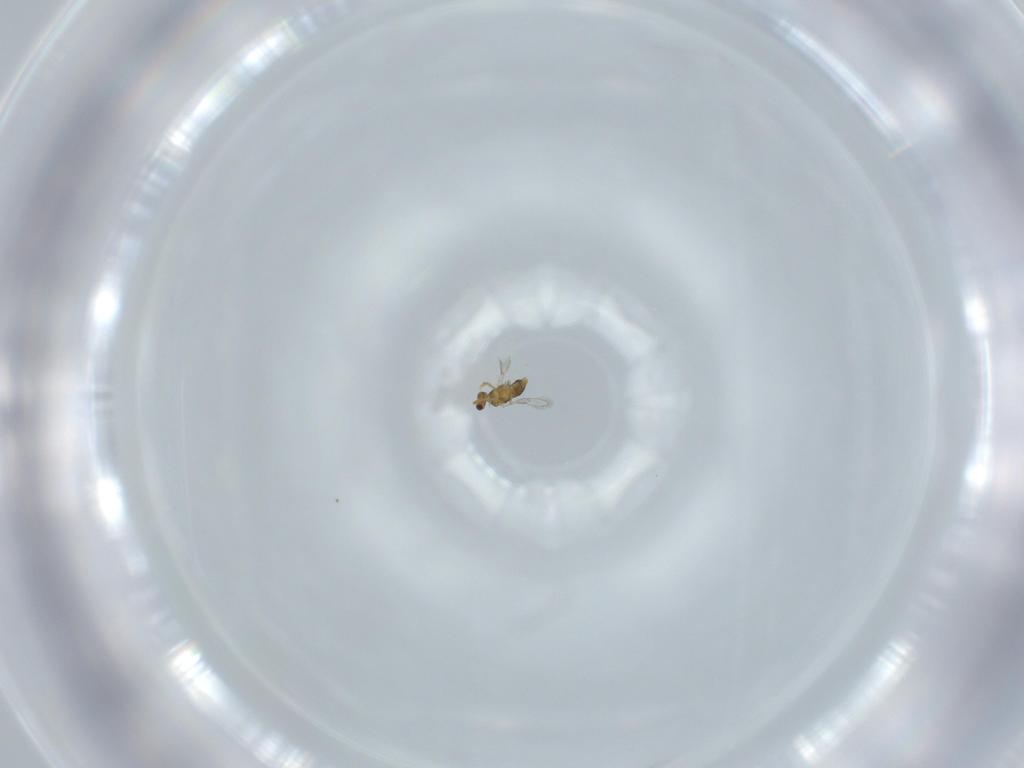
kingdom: Animalia
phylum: Arthropoda
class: Insecta
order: Hymenoptera
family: Aphelinidae
